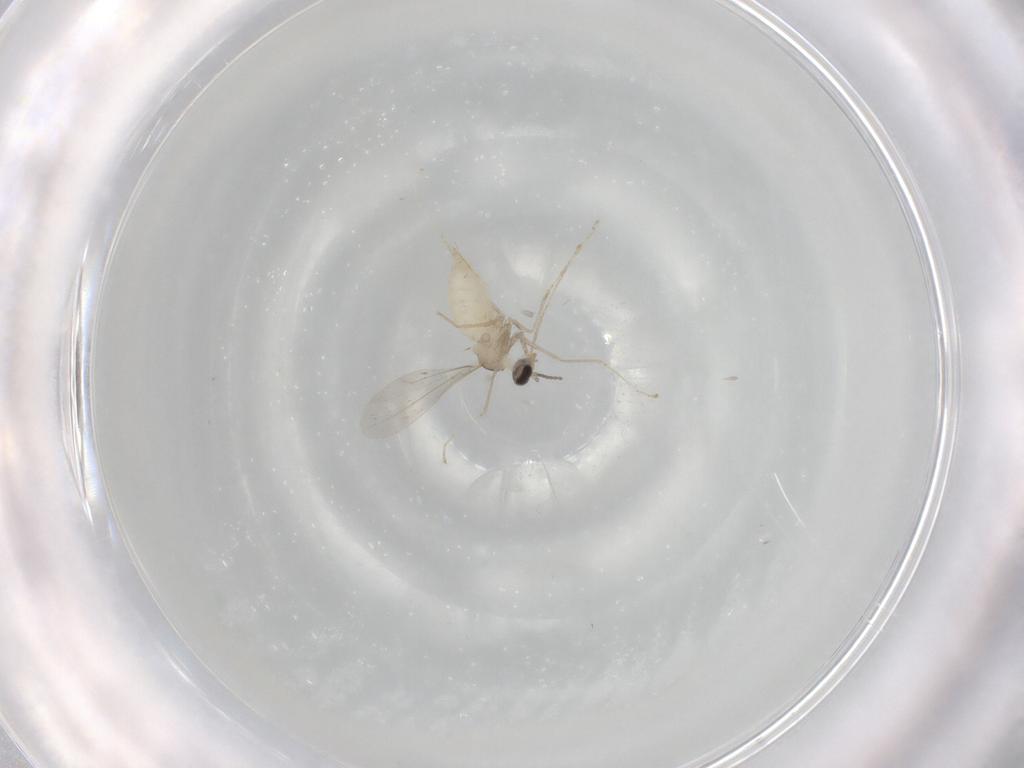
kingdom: Animalia
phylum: Arthropoda
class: Insecta
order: Diptera
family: Cecidomyiidae
